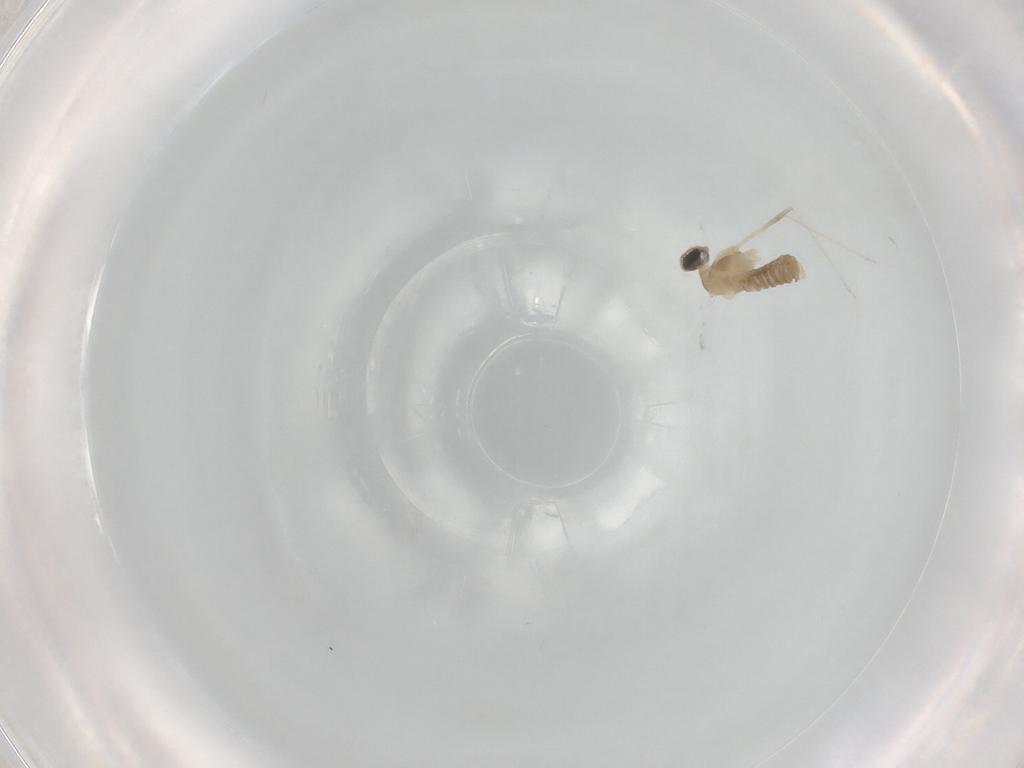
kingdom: Animalia
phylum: Arthropoda
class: Insecta
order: Diptera
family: Cecidomyiidae
